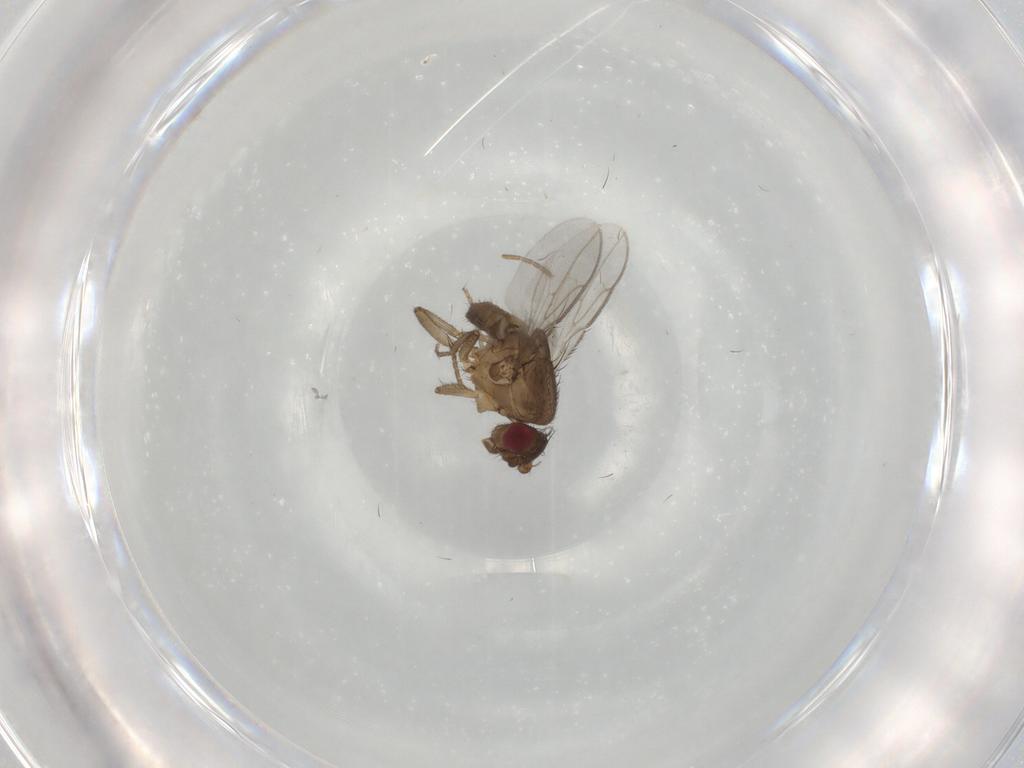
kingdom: Animalia
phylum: Arthropoda
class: Insecta
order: Diptera
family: Sphaeroceridae
